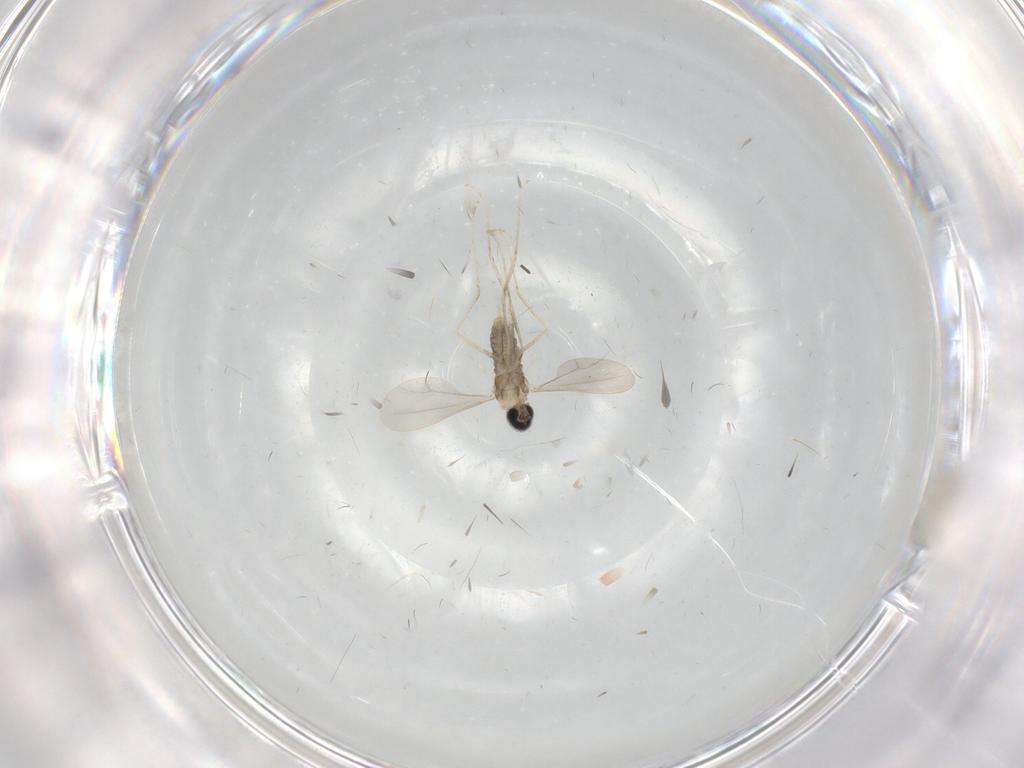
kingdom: Animalia
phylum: Arthropoda
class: Insecta
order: Diptera
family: Cecidomyiidae
